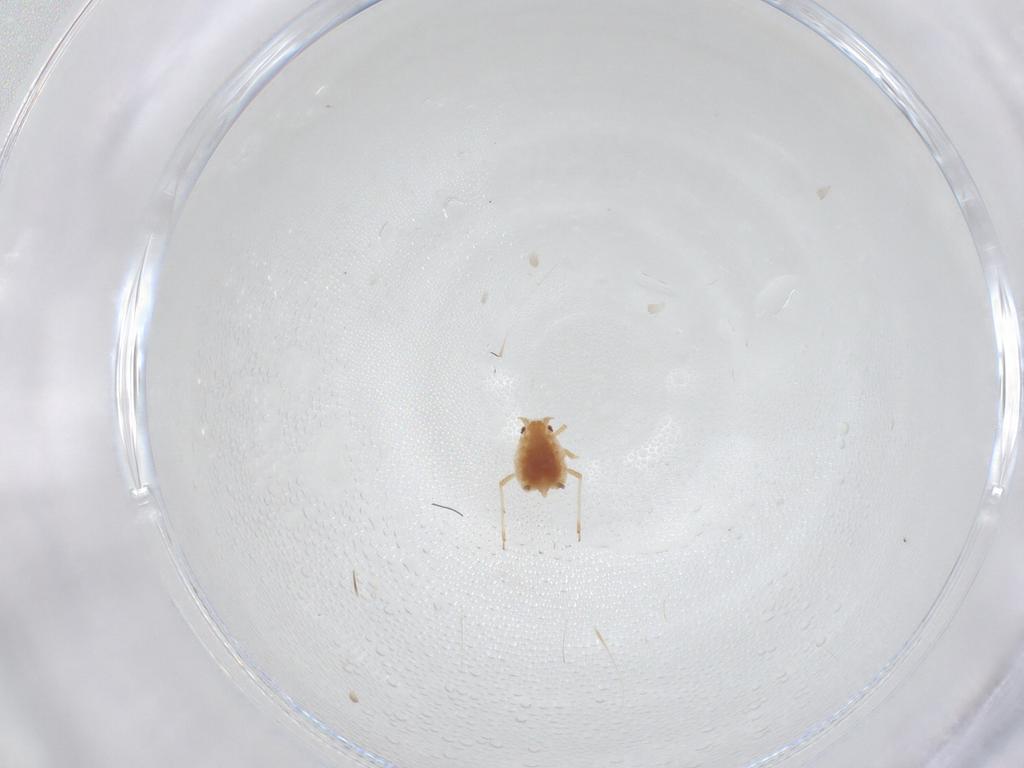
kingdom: Animalia
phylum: Arthropoda
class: Insecta
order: Hemiptera
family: Aphididae
